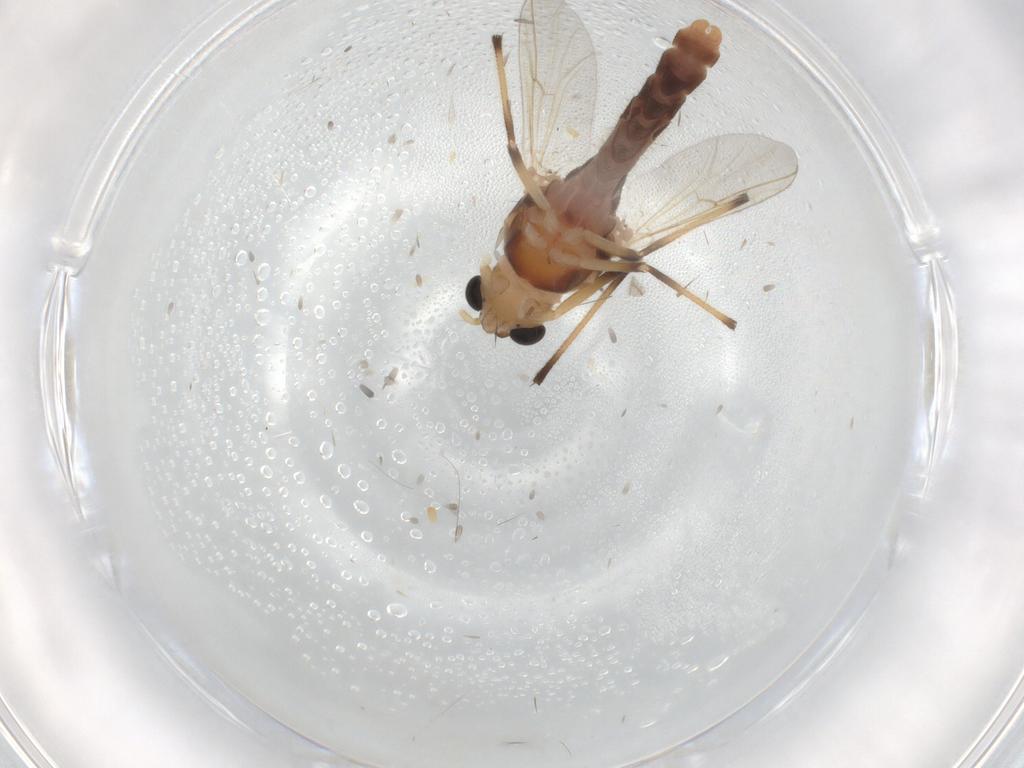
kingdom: Animalia
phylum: Arthropoda
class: Insecta
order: Diptera
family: Chironomidae
